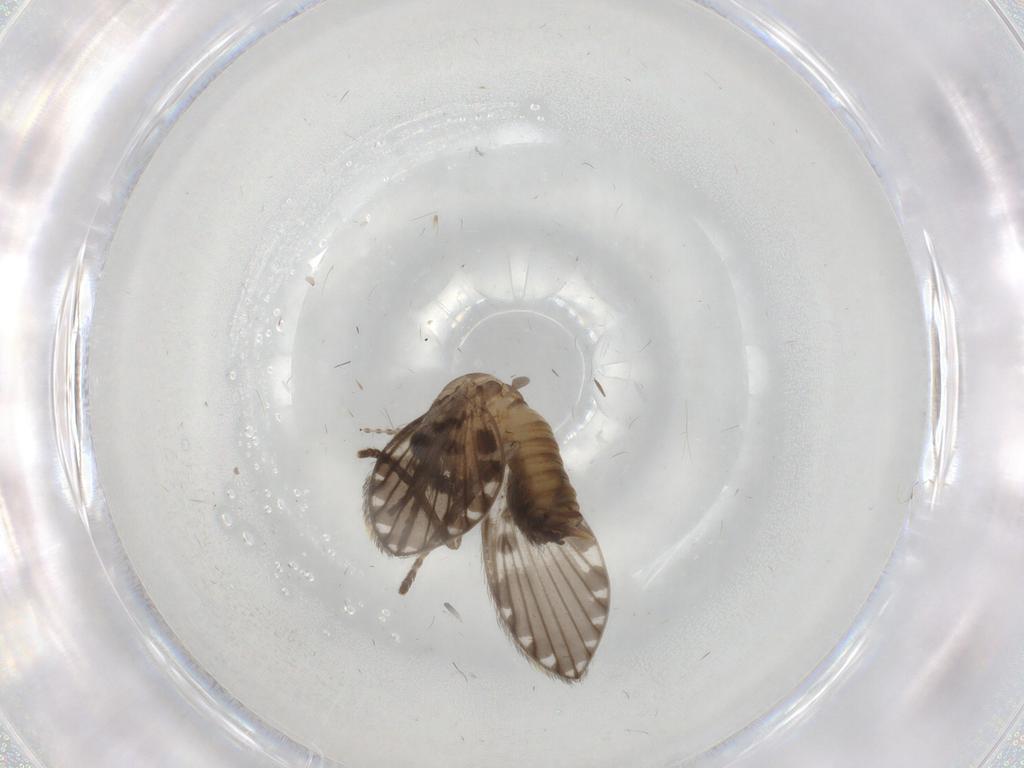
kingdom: Animalia
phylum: Arthropoda
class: Insecta
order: Diptera
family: Psychodidae
